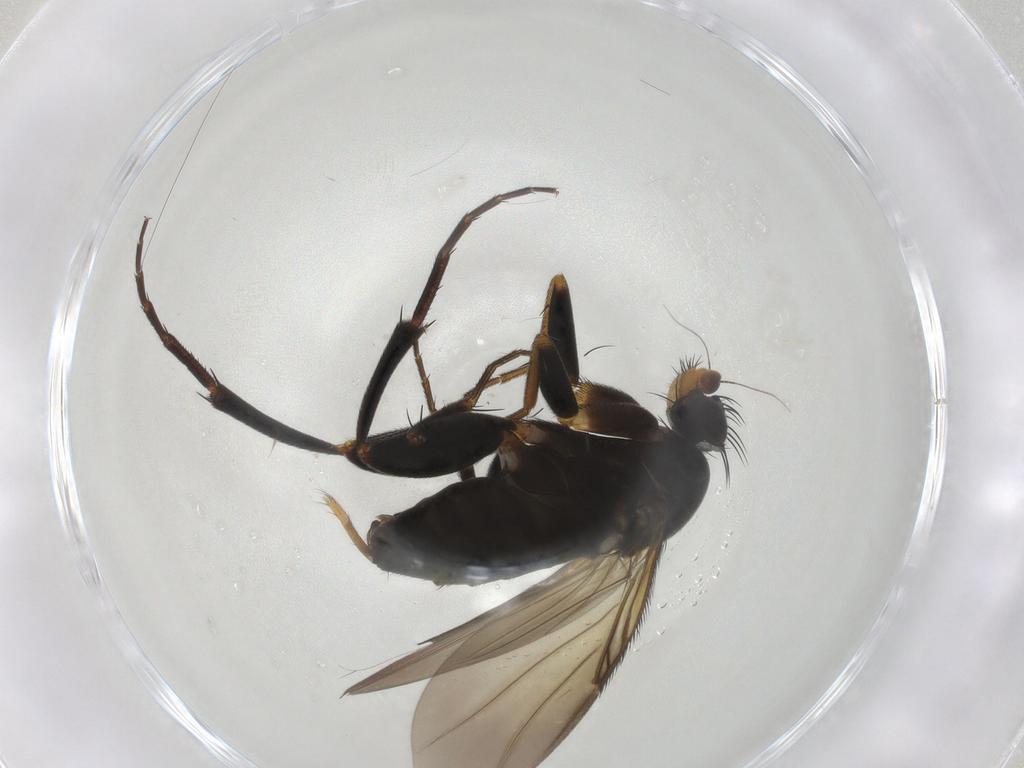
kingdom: Animalia
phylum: Arthropoda
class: Insecta
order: Diptera
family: Phoridae
